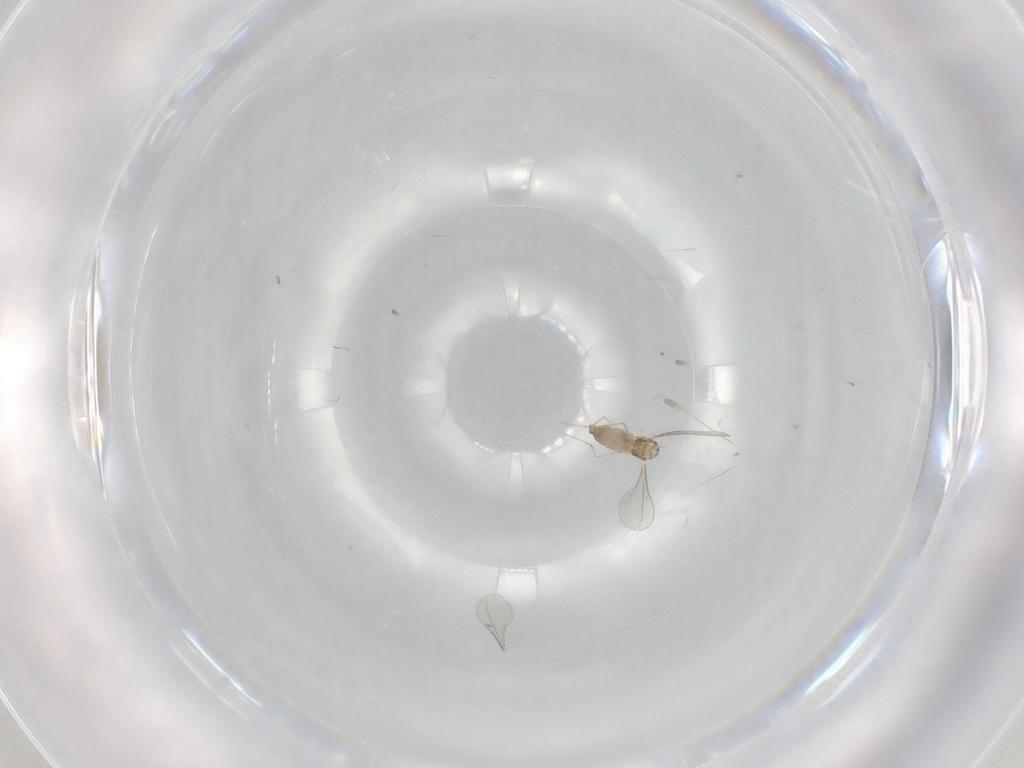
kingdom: Animalia
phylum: Arthropoda
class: Insecta
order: Diptera
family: Cecidomyiidae
